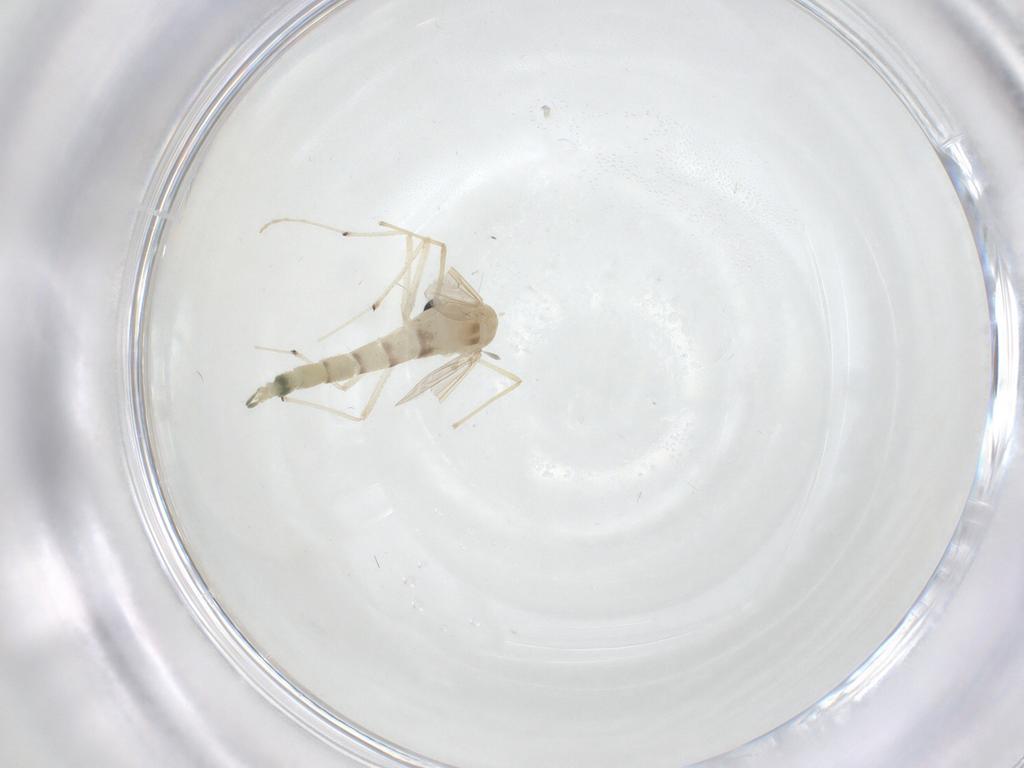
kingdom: Animalia
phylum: Arthropoda
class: Insecta
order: Diptera
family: Chironomidae
